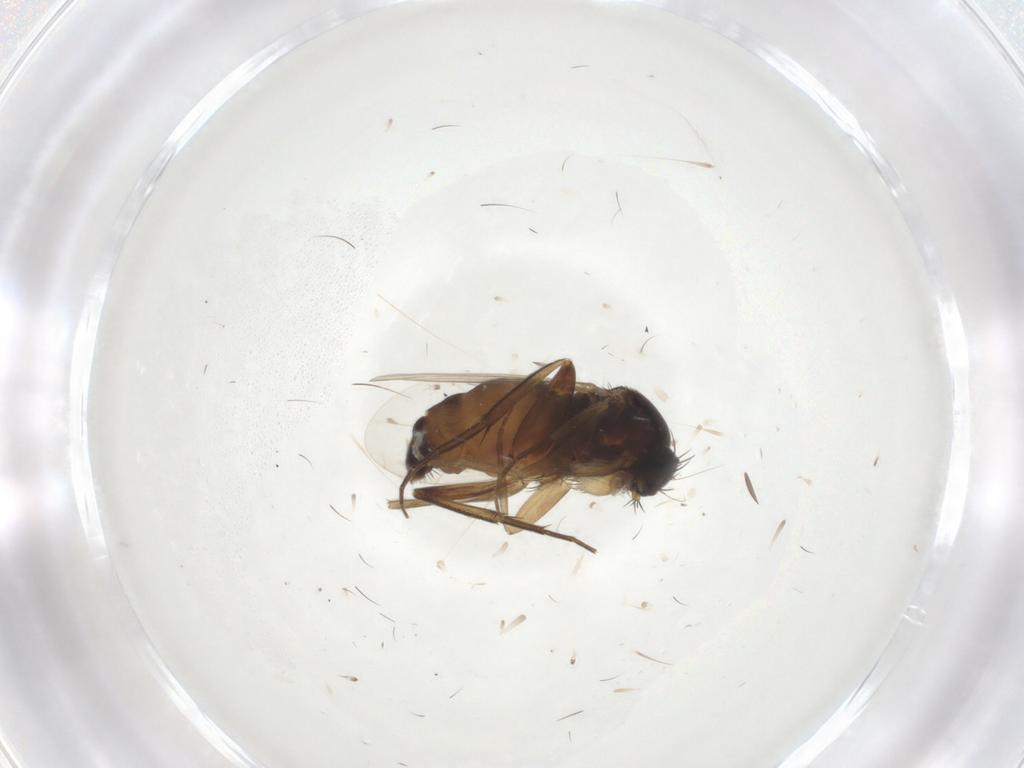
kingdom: Animalia
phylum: Arthropoda
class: Insecta
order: Diptera
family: Phoridae
